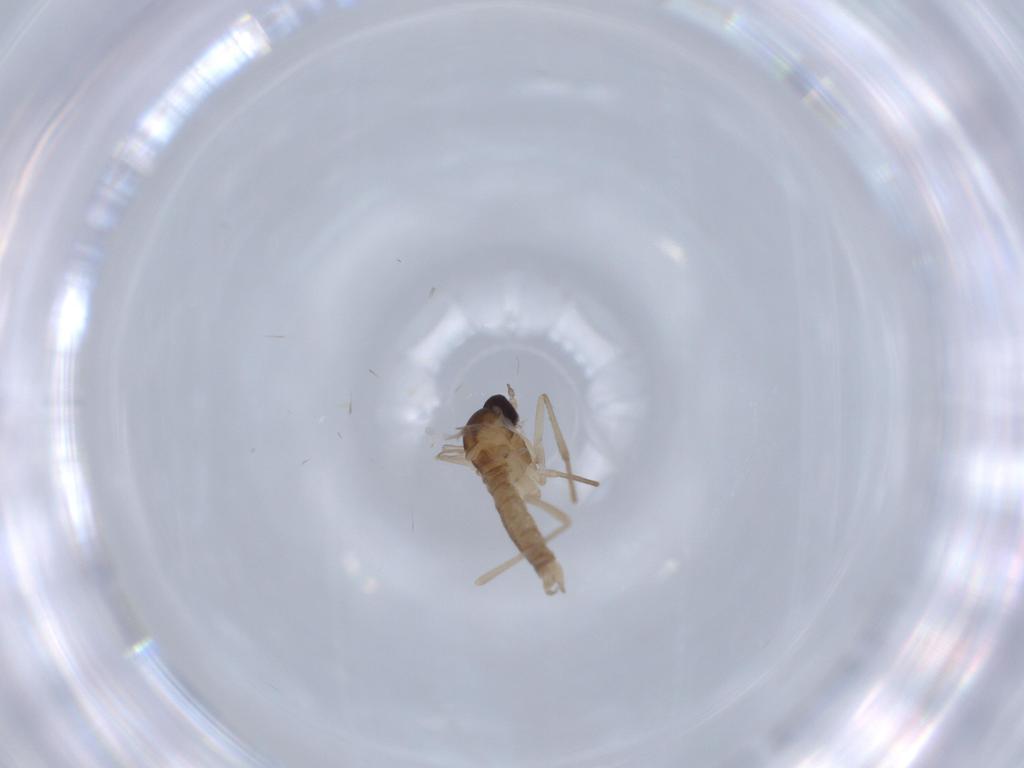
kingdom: Animalia
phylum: Arthropoda
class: Insecta
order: Diptera
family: Cecidomyiidae
